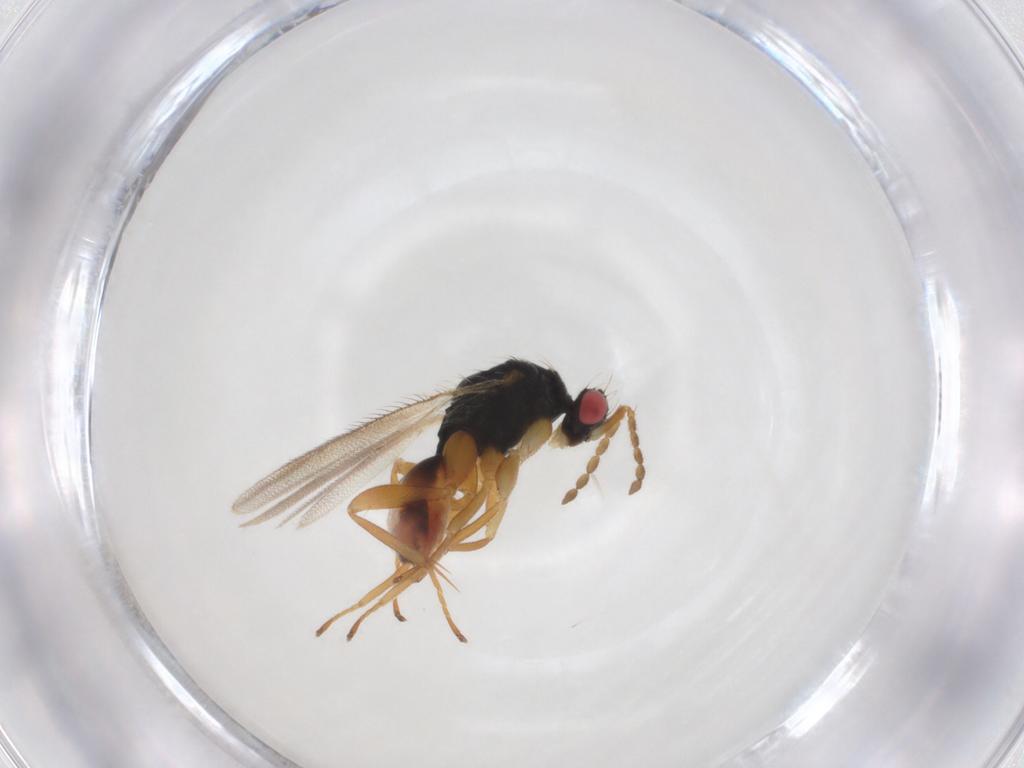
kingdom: Animalia
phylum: Arthropoda
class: Insecta
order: Hymenoptera
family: Eulophidae
